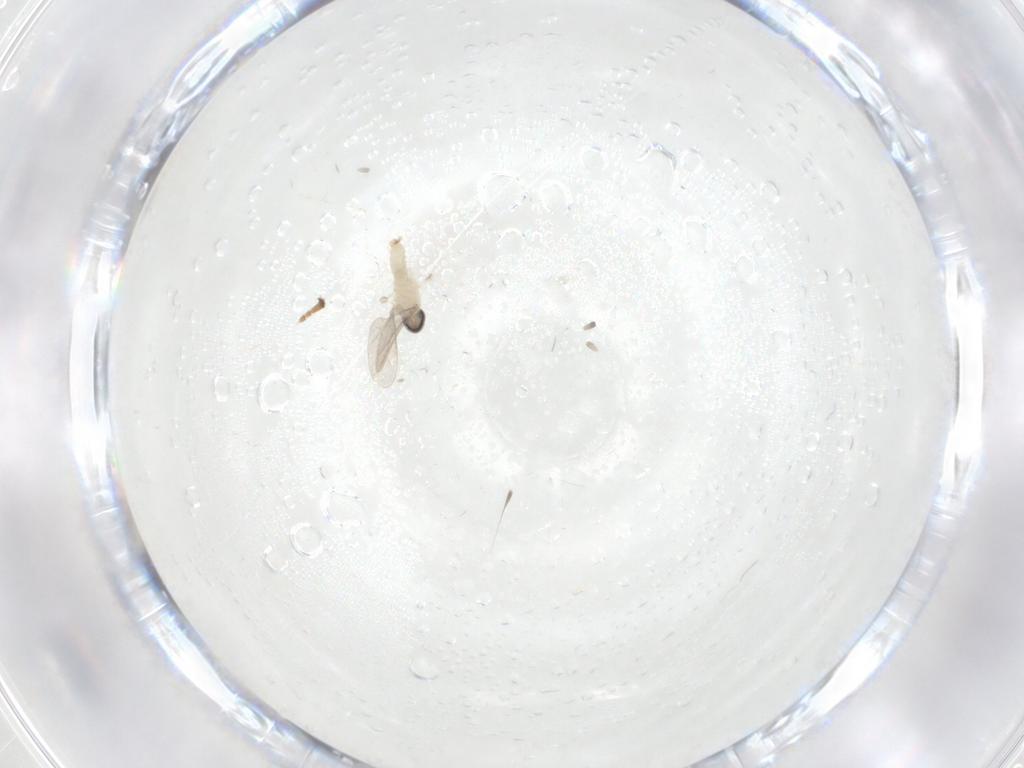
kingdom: Animalia
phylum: Arthropoda
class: Insecta
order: Diptera
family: Cecidomyiidae
